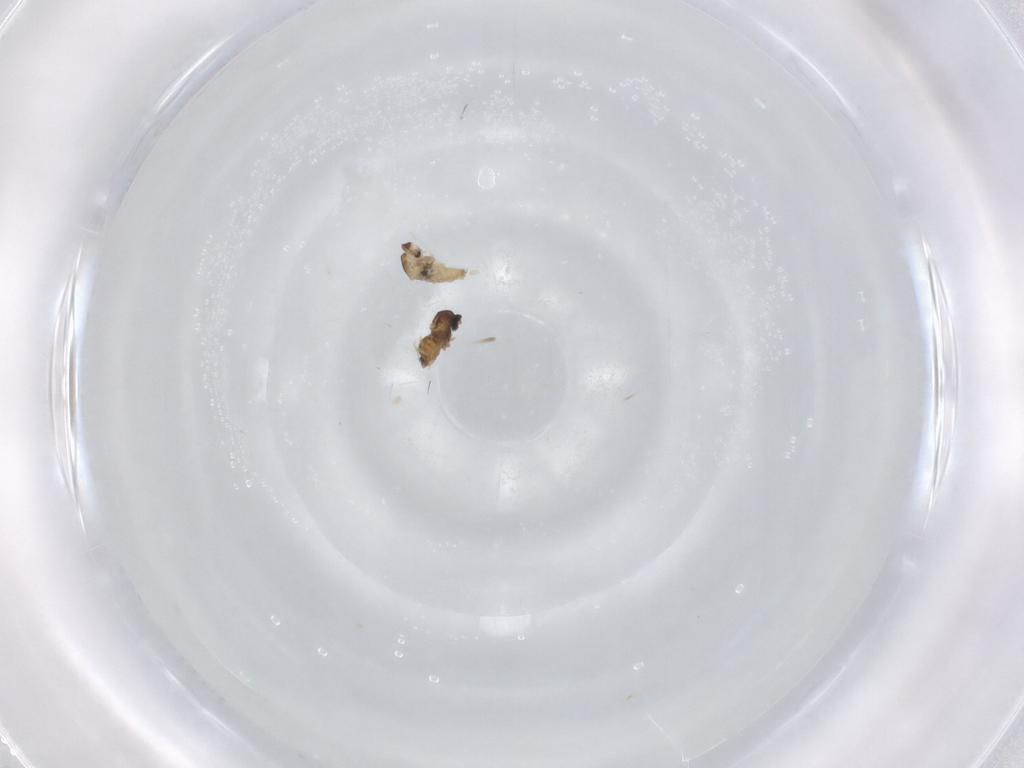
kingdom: Animalia
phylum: Arthropoda
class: Insecta
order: Diptera
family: Cecidomyiidae
